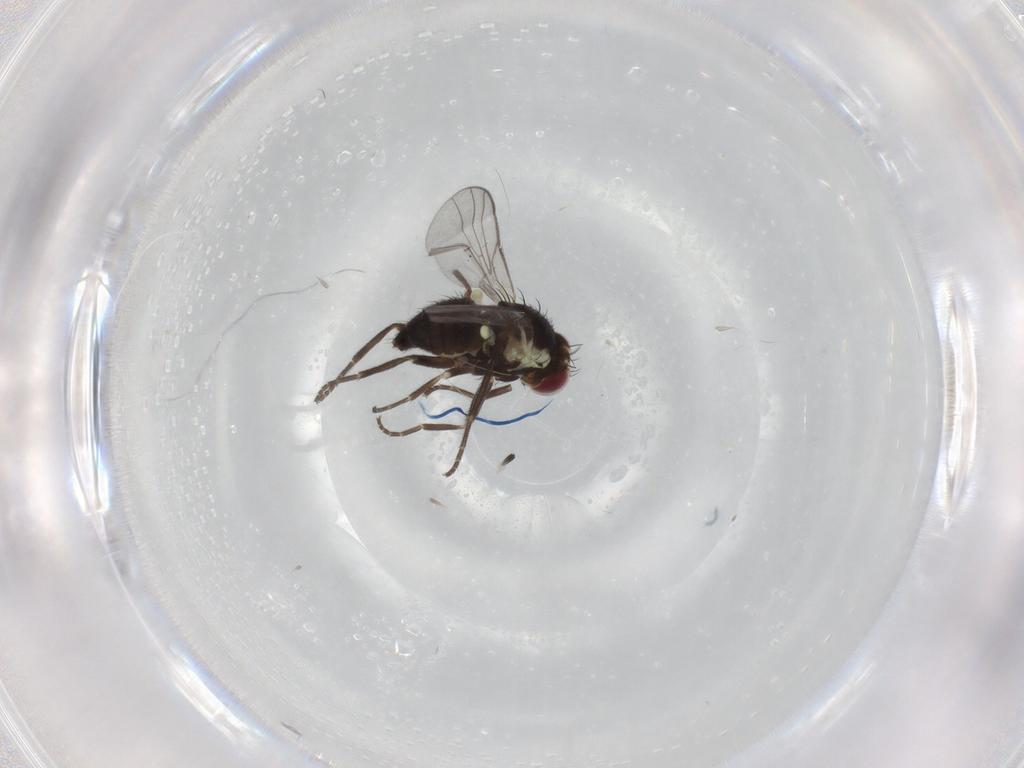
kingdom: Animalia
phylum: Arthropoda
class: Insecta
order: Diptera
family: Agromyzidae
